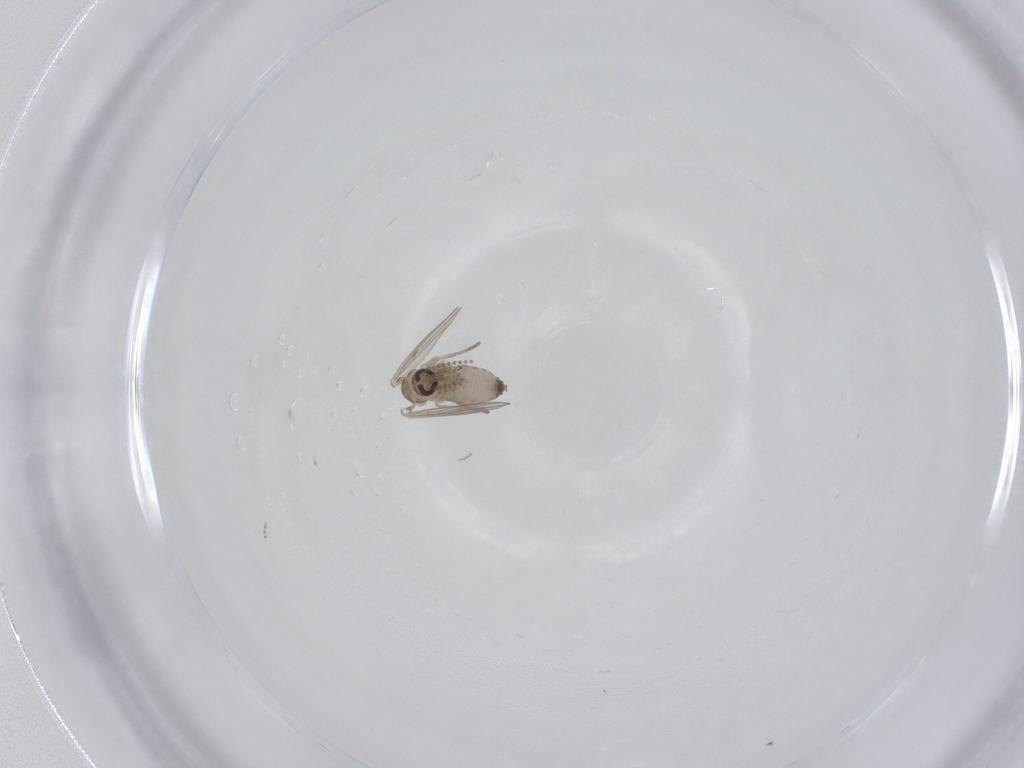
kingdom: Animalia
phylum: Arthropoda
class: Insecta
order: Diptera
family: Psychodidae
